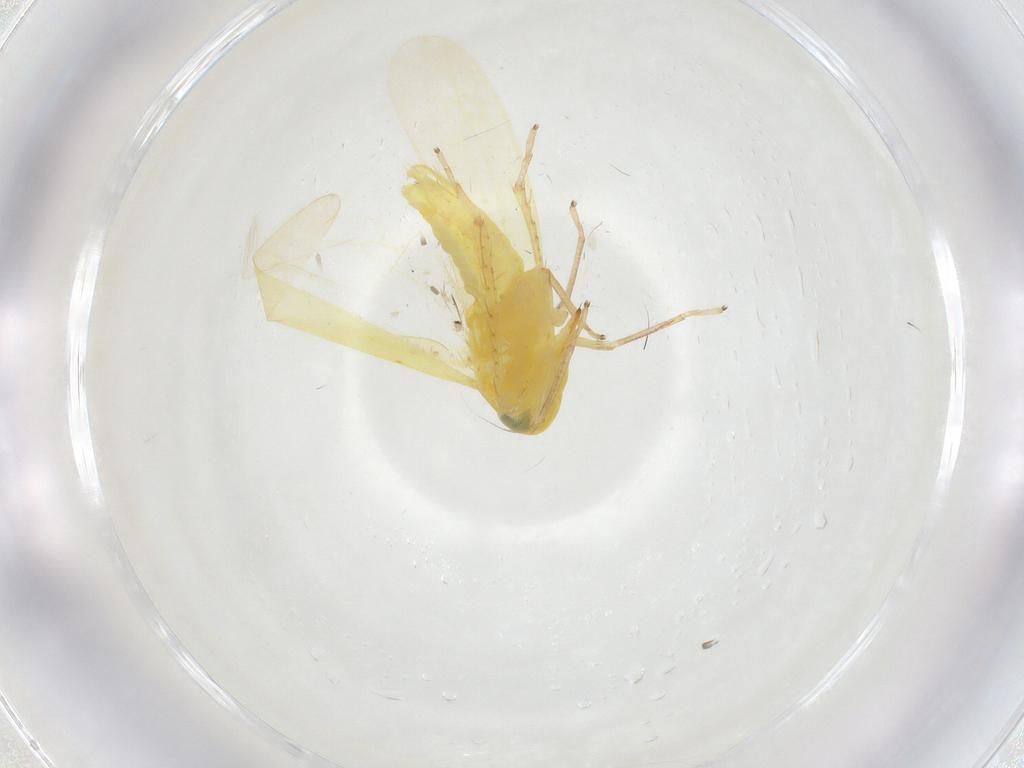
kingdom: Animalia
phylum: Arthropoda
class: Insecta
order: Hemiptera
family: Cicadellidae
